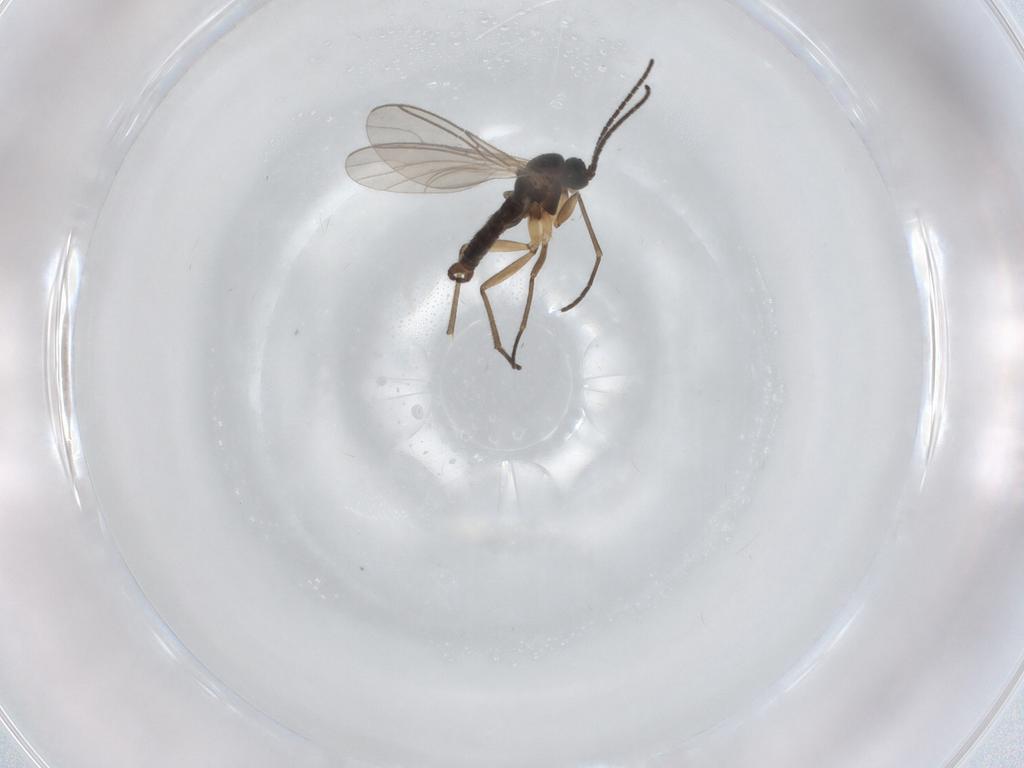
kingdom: Animalia
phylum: Arthropoda
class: Insecta
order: Diptera
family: Sciaridae
